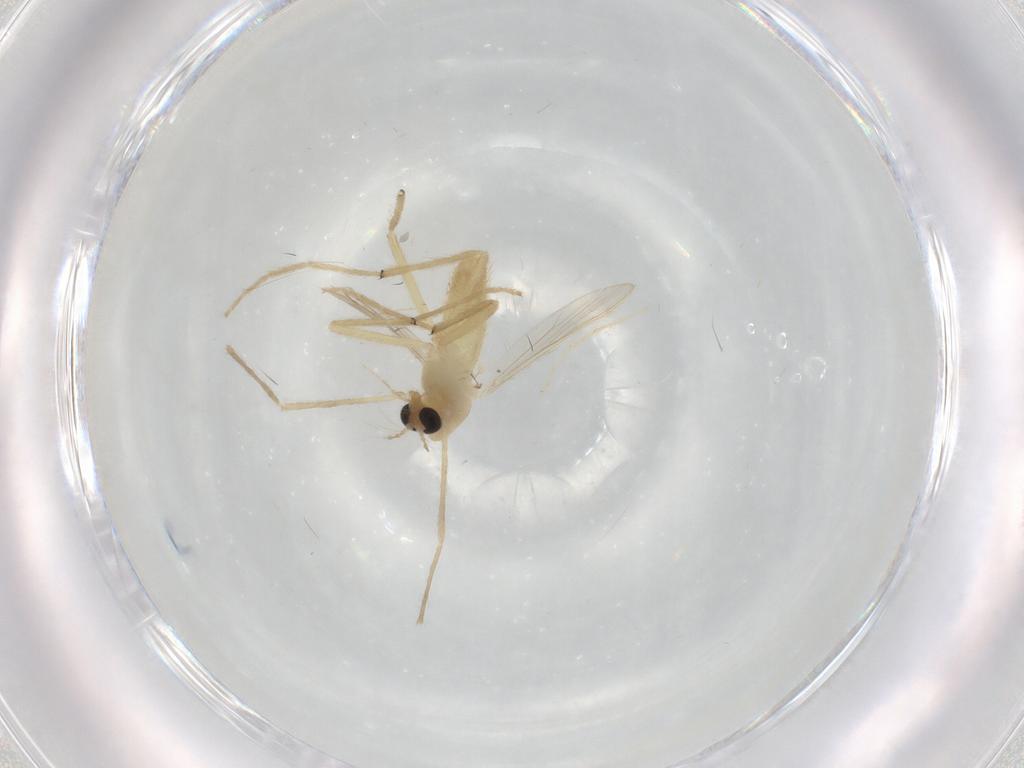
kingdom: Animalia
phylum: Arthropoda
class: Insecta
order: Diptera
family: Chironomidae
